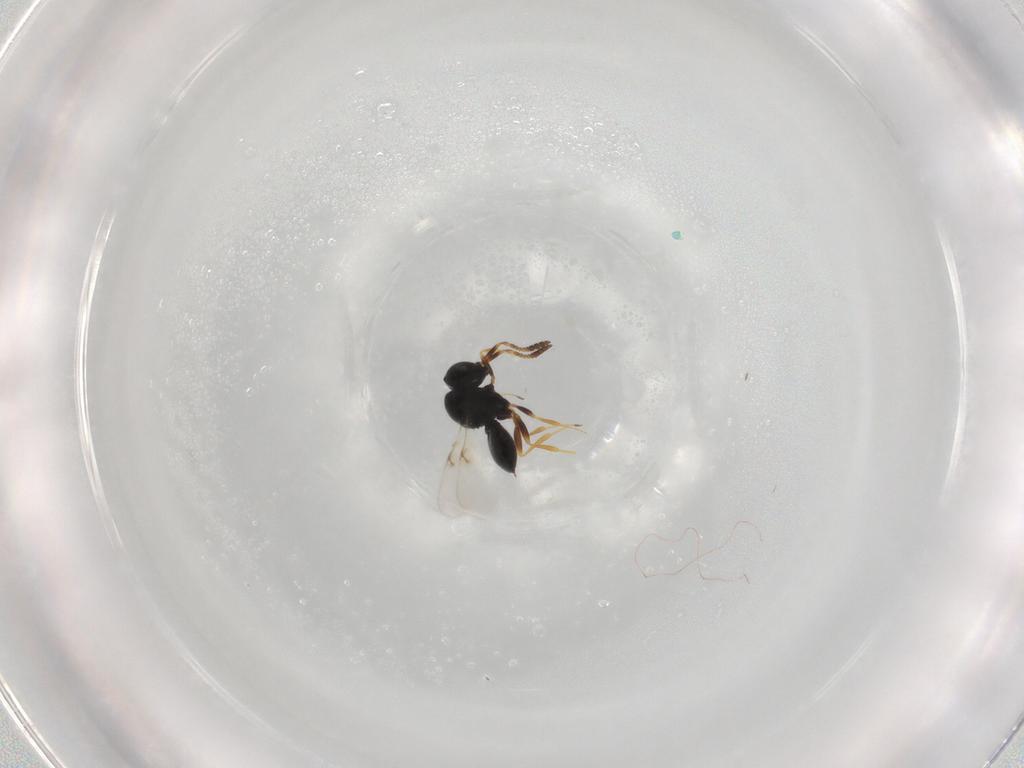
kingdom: Animalia
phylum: Arthropoda
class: Insecta
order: Hymenoptera
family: Scelionidae
